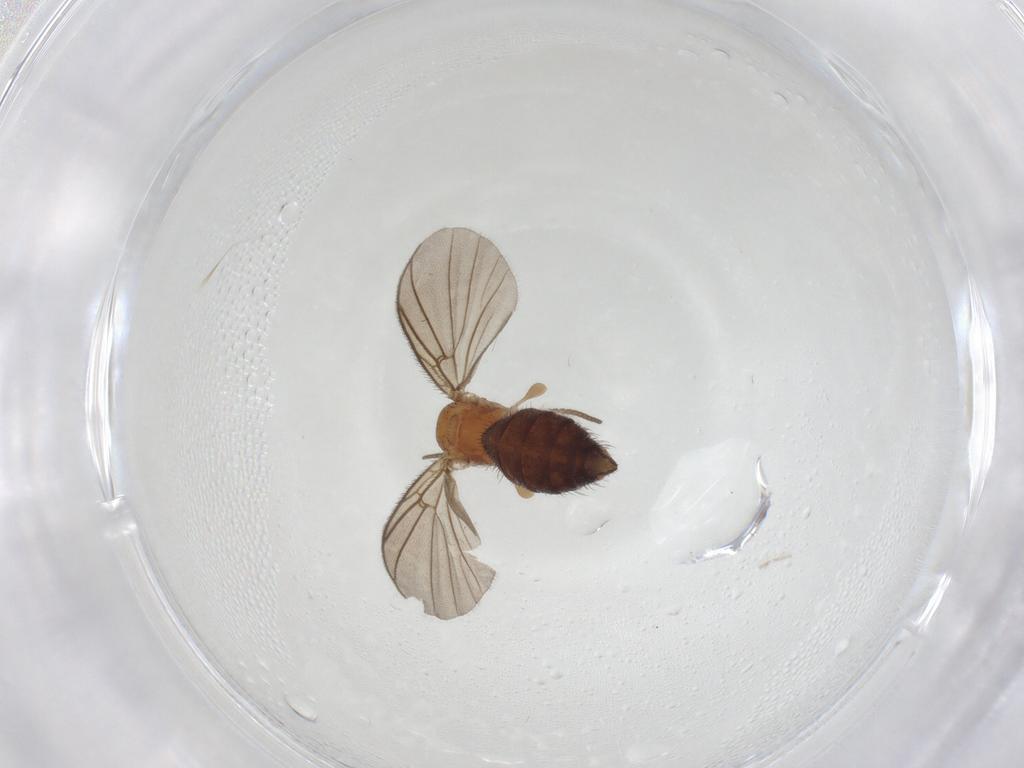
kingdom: Animalia
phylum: Arthropoda
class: Insecta
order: Diptera
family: Mycetophilidae
